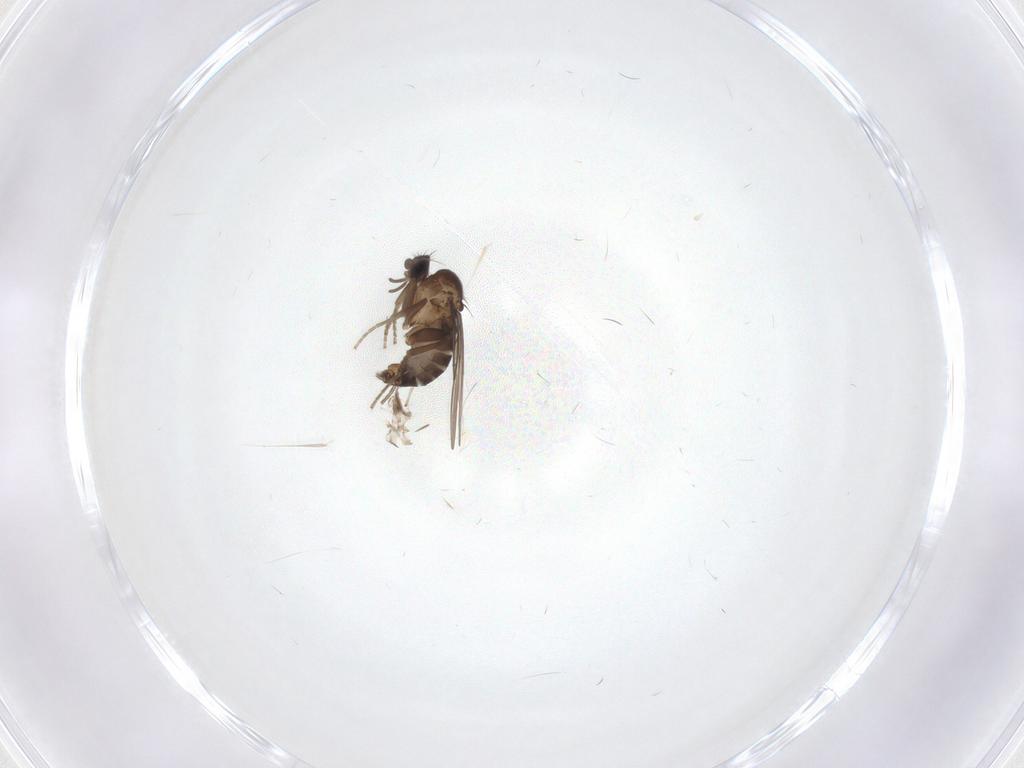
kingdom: Animalia
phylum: Arthropoda
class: Insecta
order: Diptera
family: Phoridae
